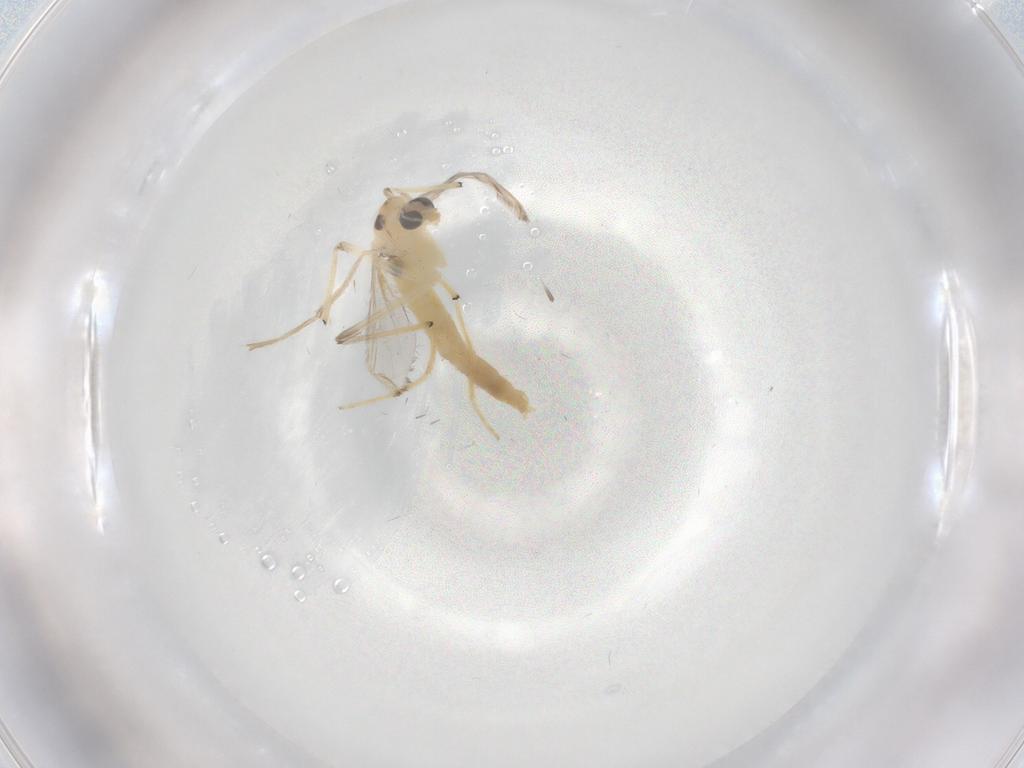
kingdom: Animalia
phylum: Arthropoda
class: Insecta
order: Diptera
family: Chironomidae
